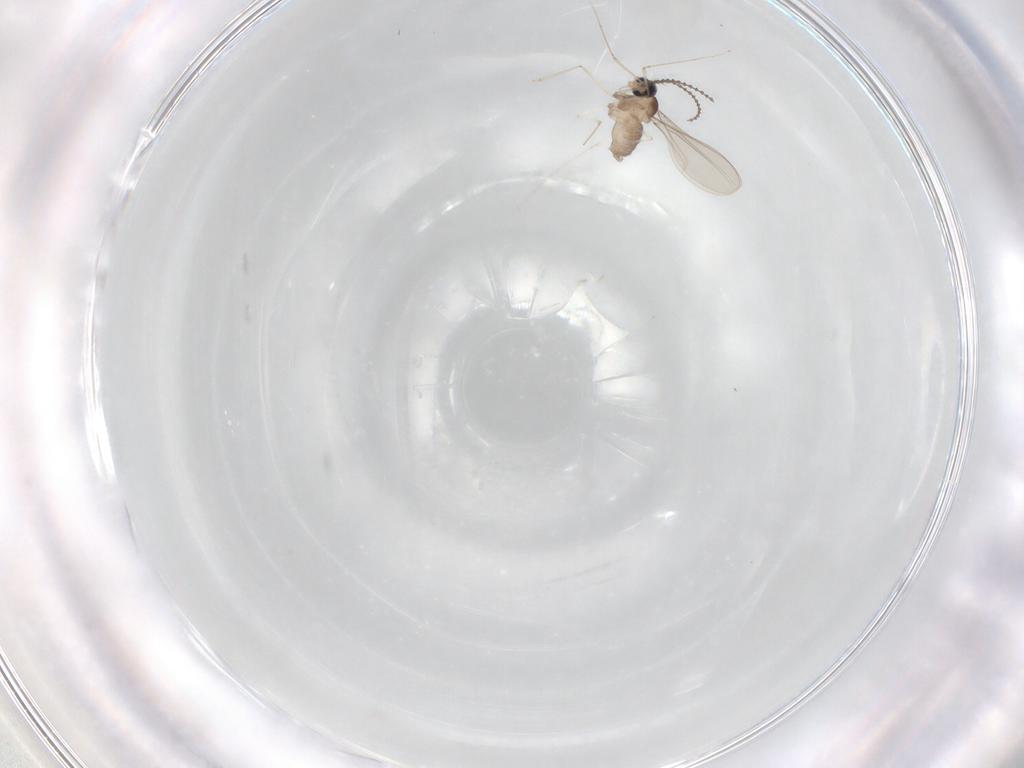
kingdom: Animalia
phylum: Arthropoda
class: Insecta
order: Diptera
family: Cecidomyiidae
